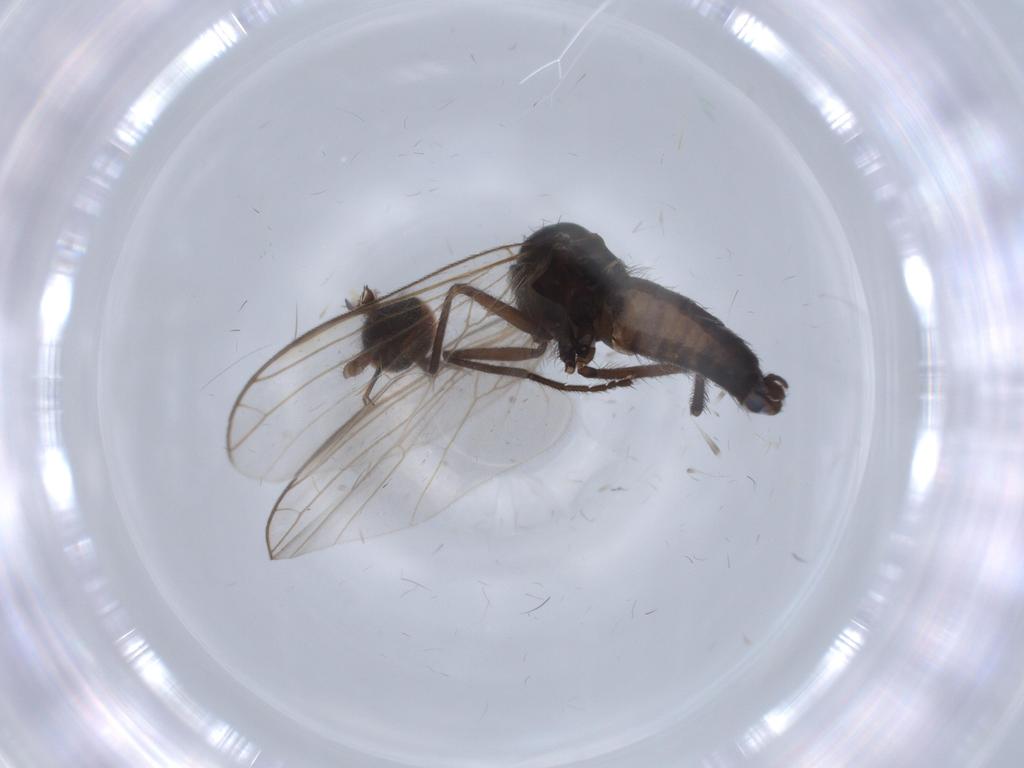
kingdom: Animalia
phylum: Arthropoda
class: Insecta
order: Diptera
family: Empididae
